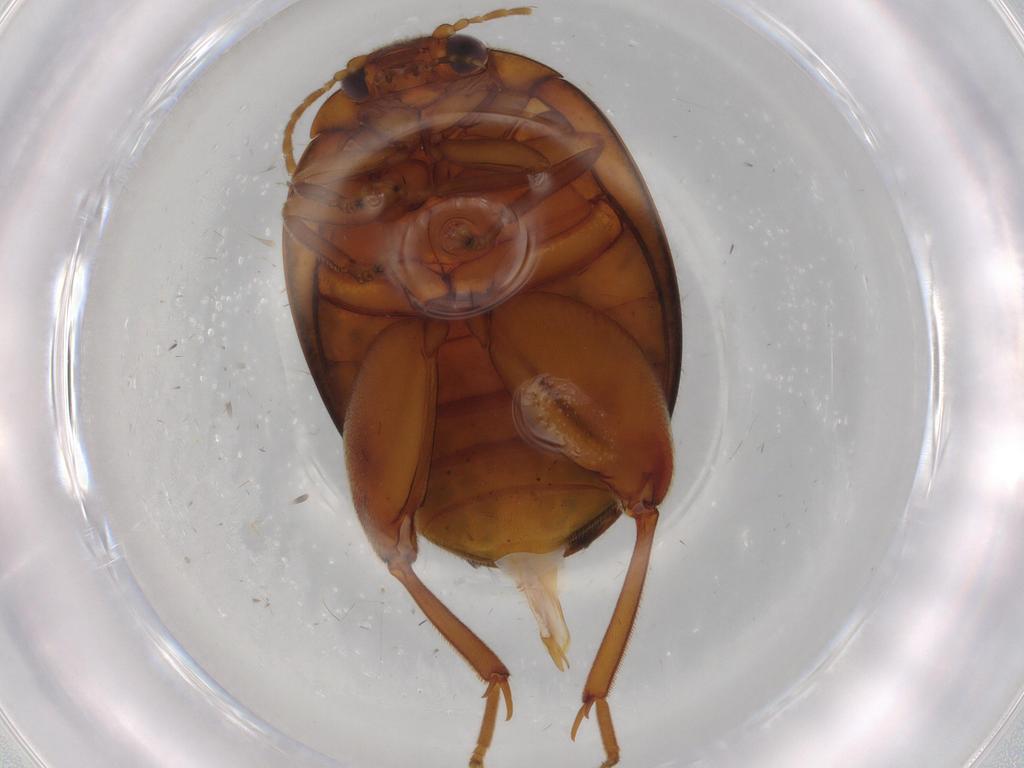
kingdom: Animalia
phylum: Arthropoda
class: Insecta
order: Coleoptera
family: Scirtidae
